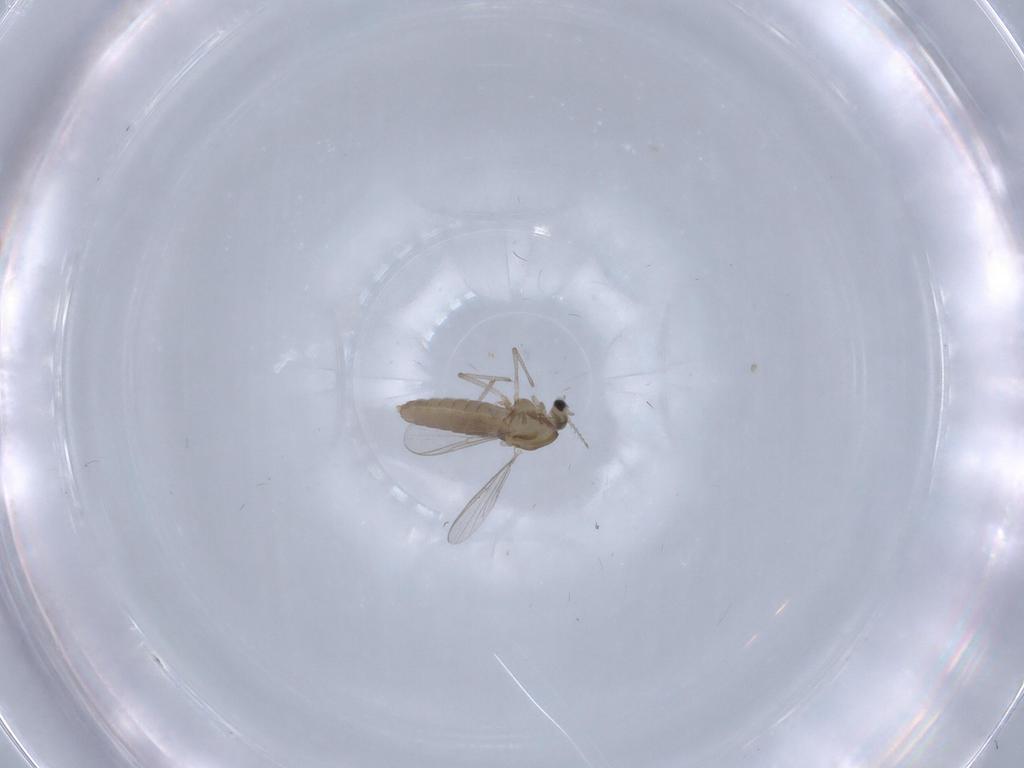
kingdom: Animalia
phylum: Arthropoda
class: Insecta
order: Diptera
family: Chironomidae
